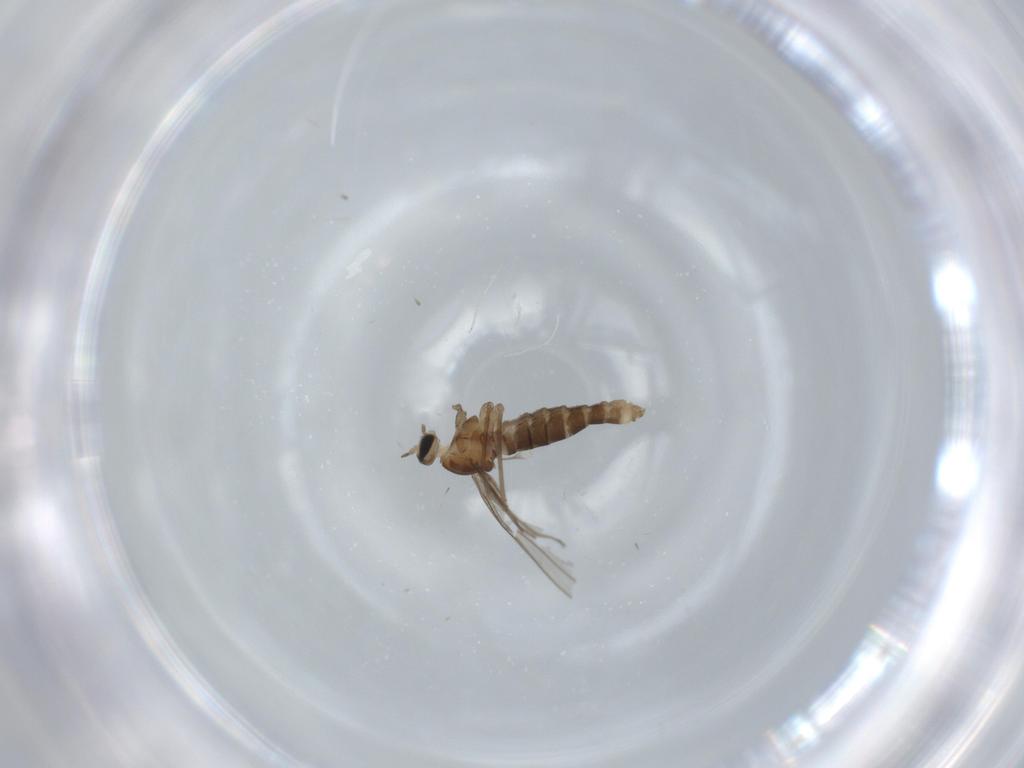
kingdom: Animalia
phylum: Arthropoda
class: Insecta
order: Diptera
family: Cecidomyiidae
